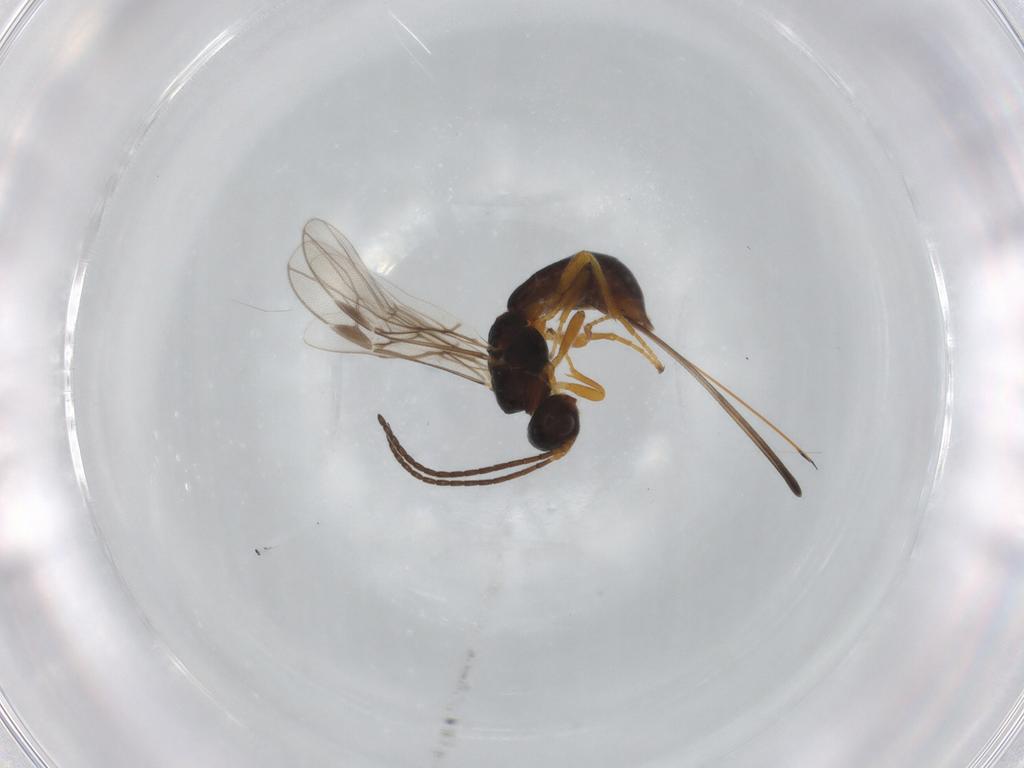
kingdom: Animalia
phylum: Arthropoda
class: Insecta
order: Hymenoptera
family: Braconidae
